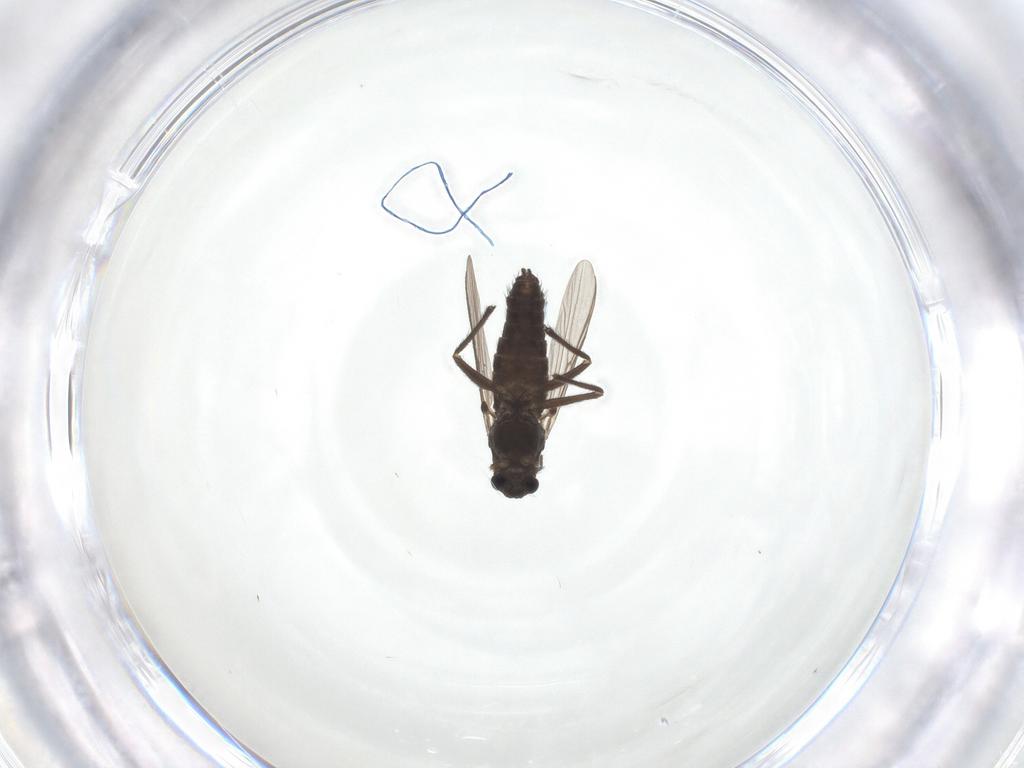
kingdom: Animalia
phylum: Arthropoda
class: Insecta
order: Diptera
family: Tipulidae
